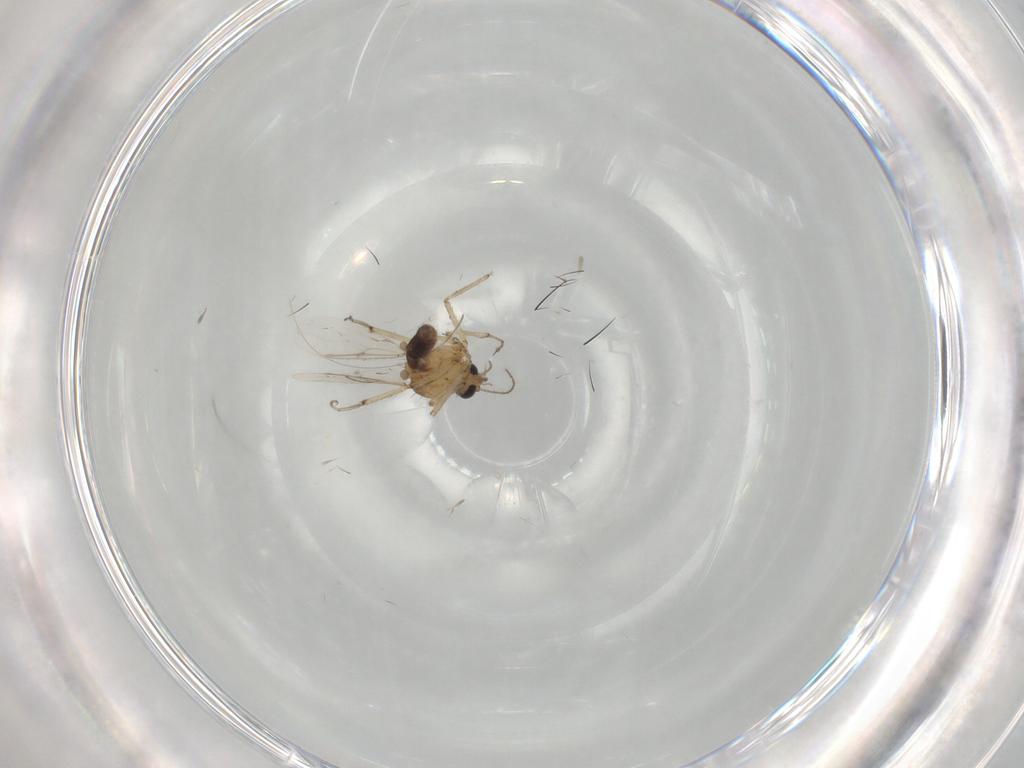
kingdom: Animalia
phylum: Arthropoda
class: Insecta
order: Diptera
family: Ceratopogonidae
